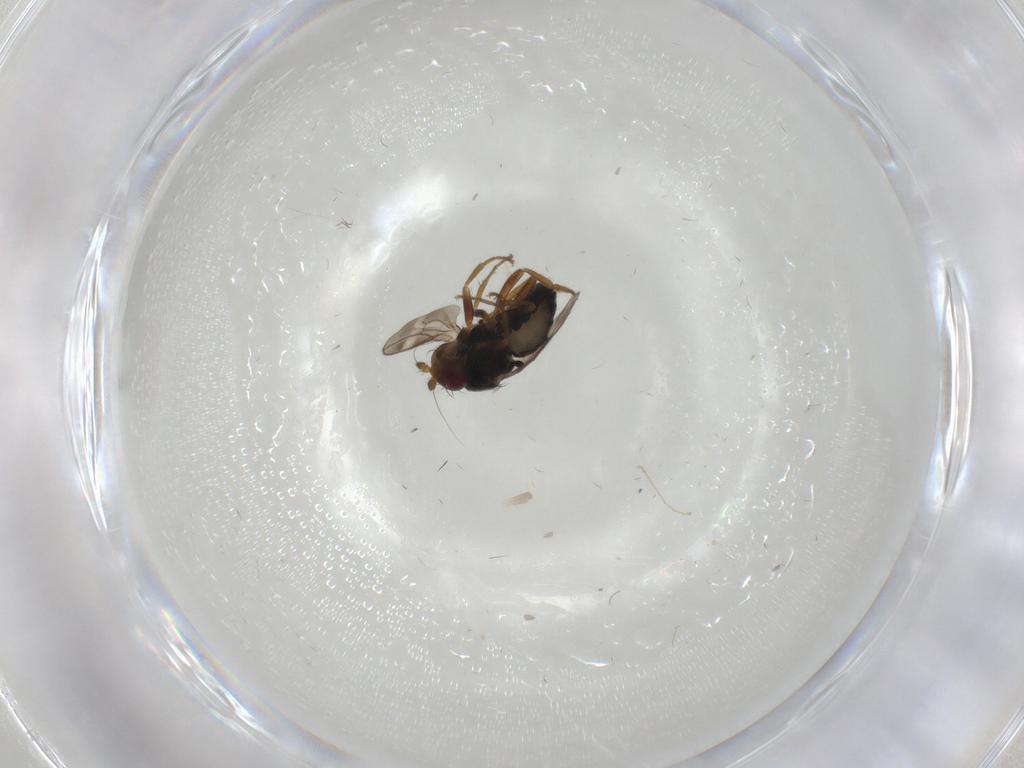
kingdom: Animalia
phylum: Arthropoda
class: Insecta
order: Diptera
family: Sphaeroceridae
